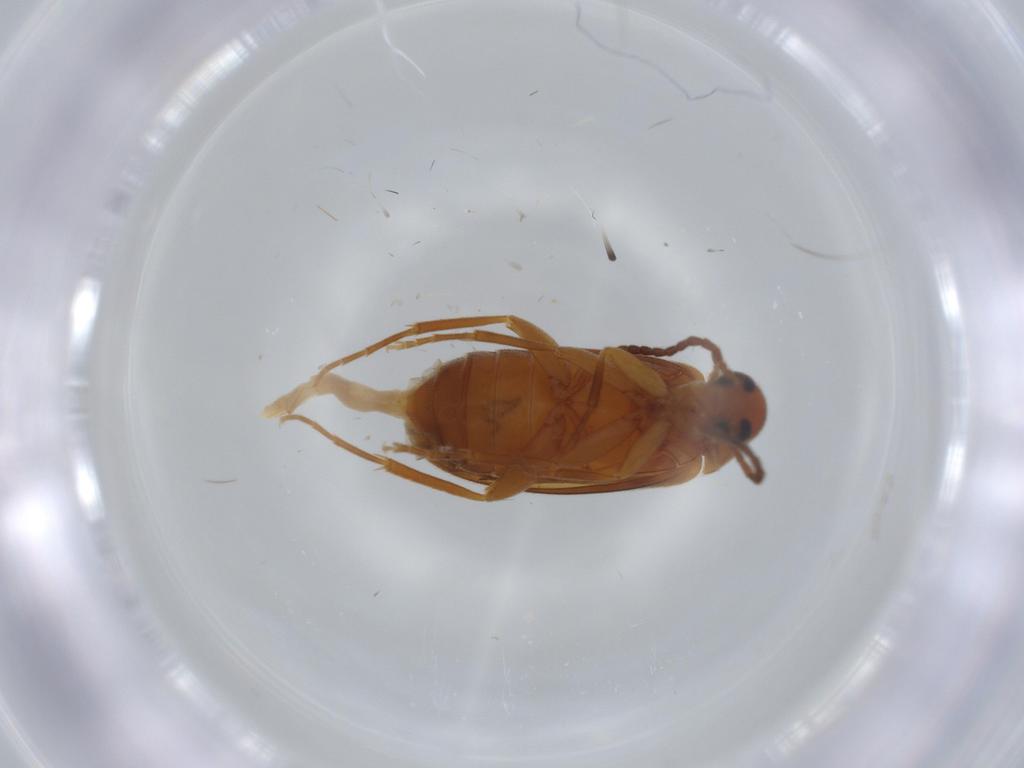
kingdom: Animalia
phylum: Arthropoda
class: Insecta
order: Coleoptera
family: Scraptiidae
